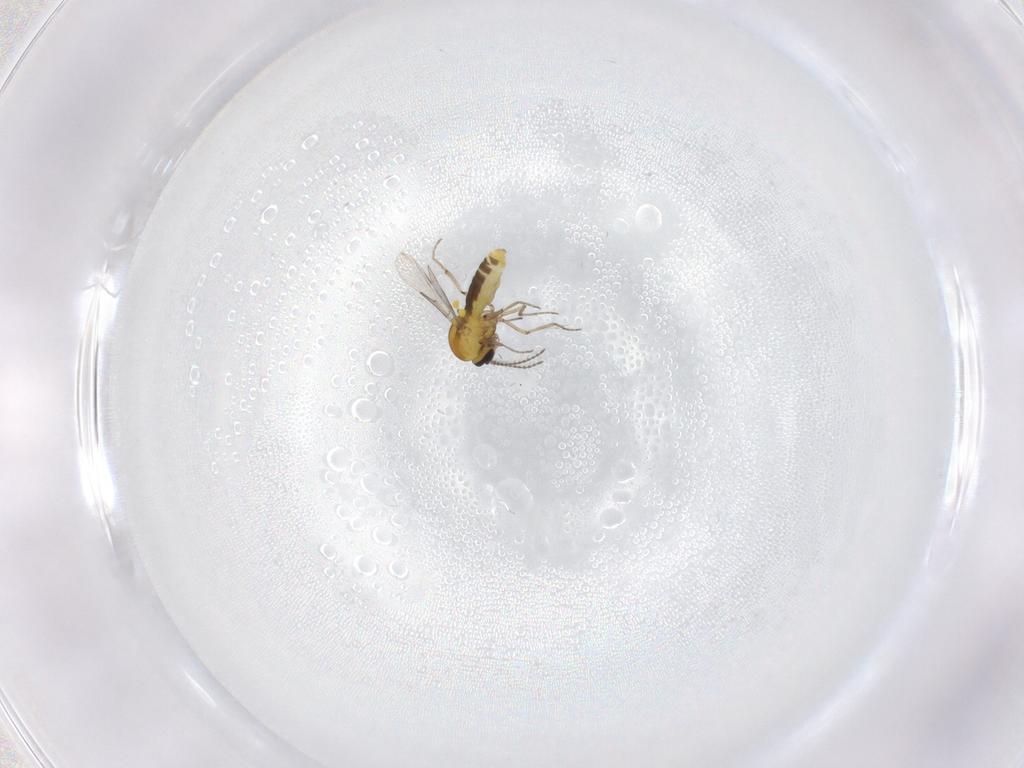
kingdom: Animalia
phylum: Arthropoda
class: Insecta
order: Diptera
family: Ceratopogonidae
